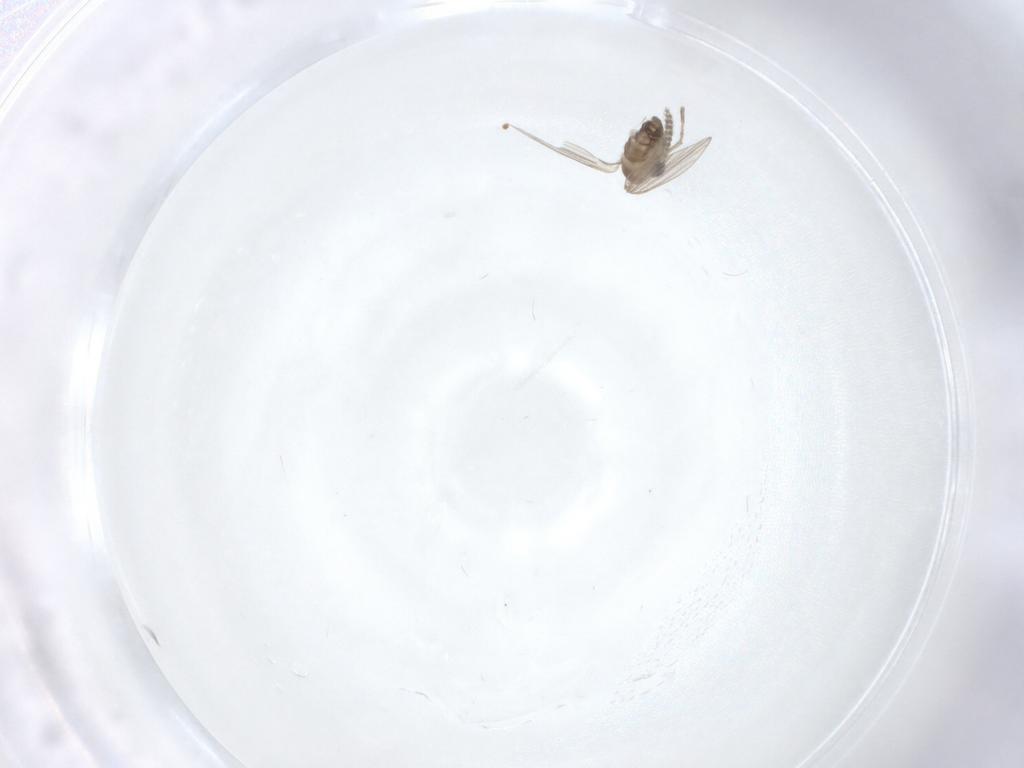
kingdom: Animalia
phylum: Arthropoda
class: Insecta
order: Diptera
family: Psychodidae
